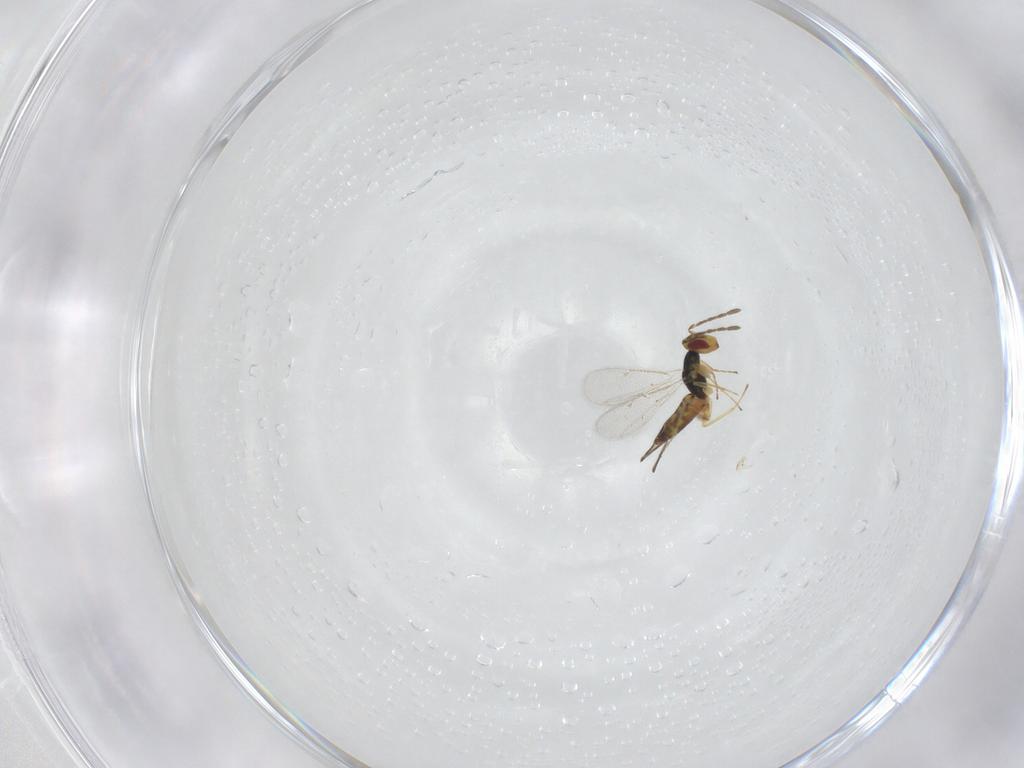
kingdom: Animalia
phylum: Arthropoda
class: Insecta
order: Hymenoptera
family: Eulophidae
